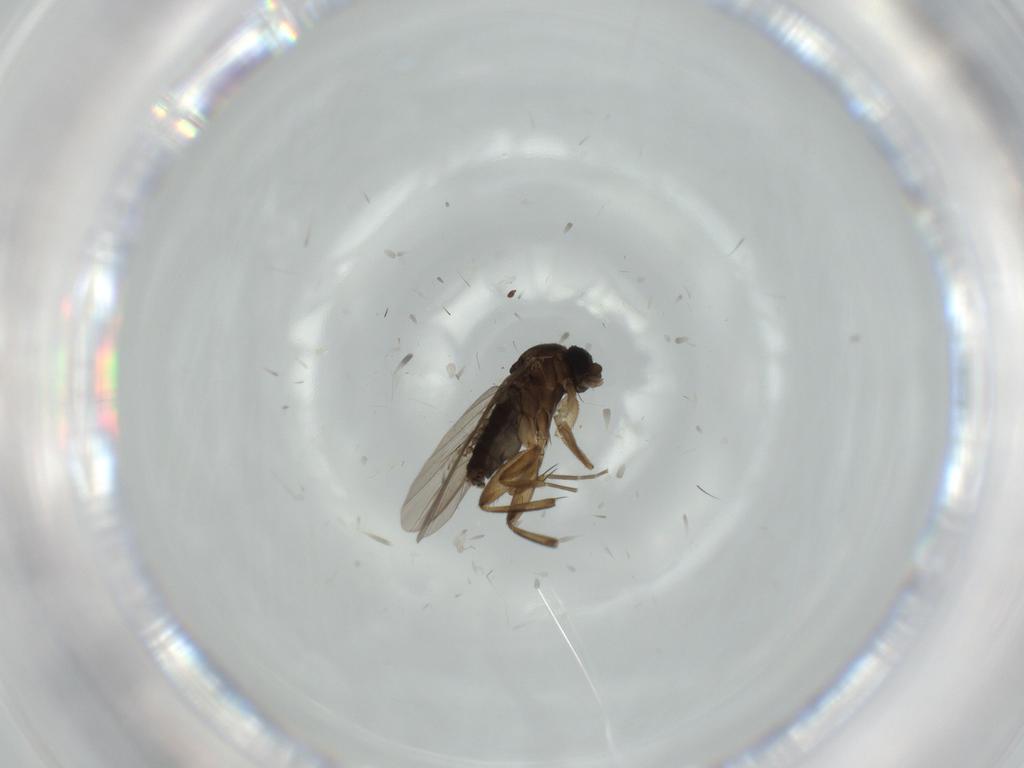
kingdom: Animalia
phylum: Arthropoda
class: Insecta
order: Diptera
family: Phoridae
